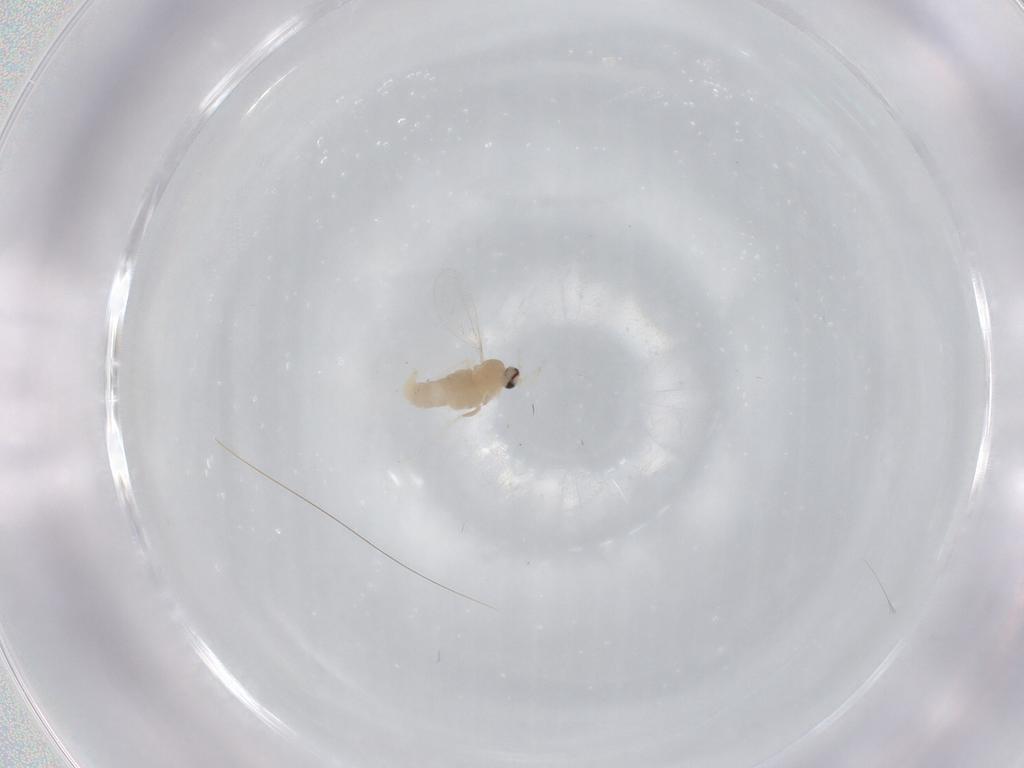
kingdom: Animalia
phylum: Arthropoda
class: Insecta
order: Diptera
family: Cecidomyiidae
